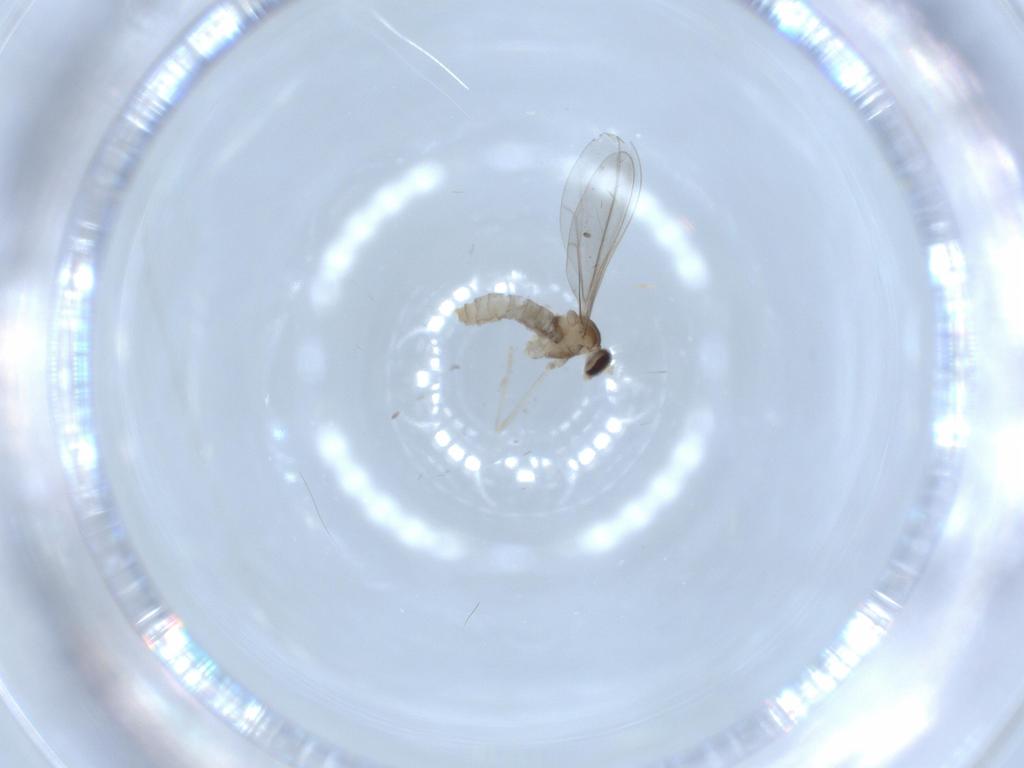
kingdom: Animalia
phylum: Arthropoda
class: Insecta
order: Diptera
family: Cecidomyiidae
